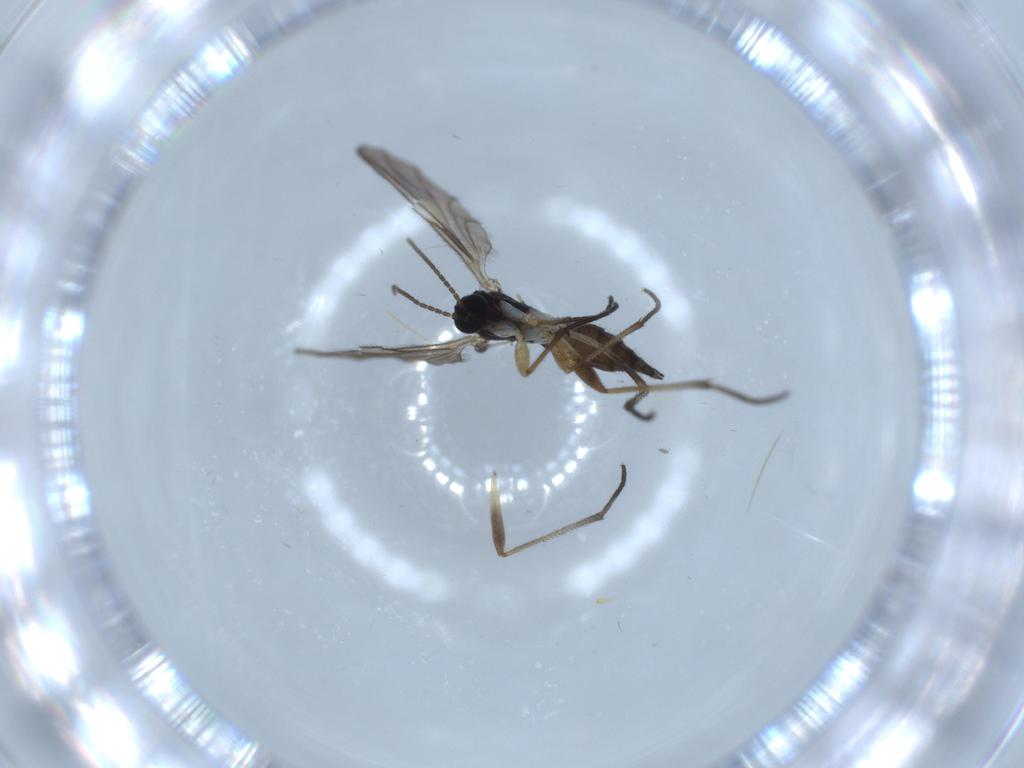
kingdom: Animalia
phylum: Arthropoda
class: Insecta
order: Diptera
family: Sciaridae
